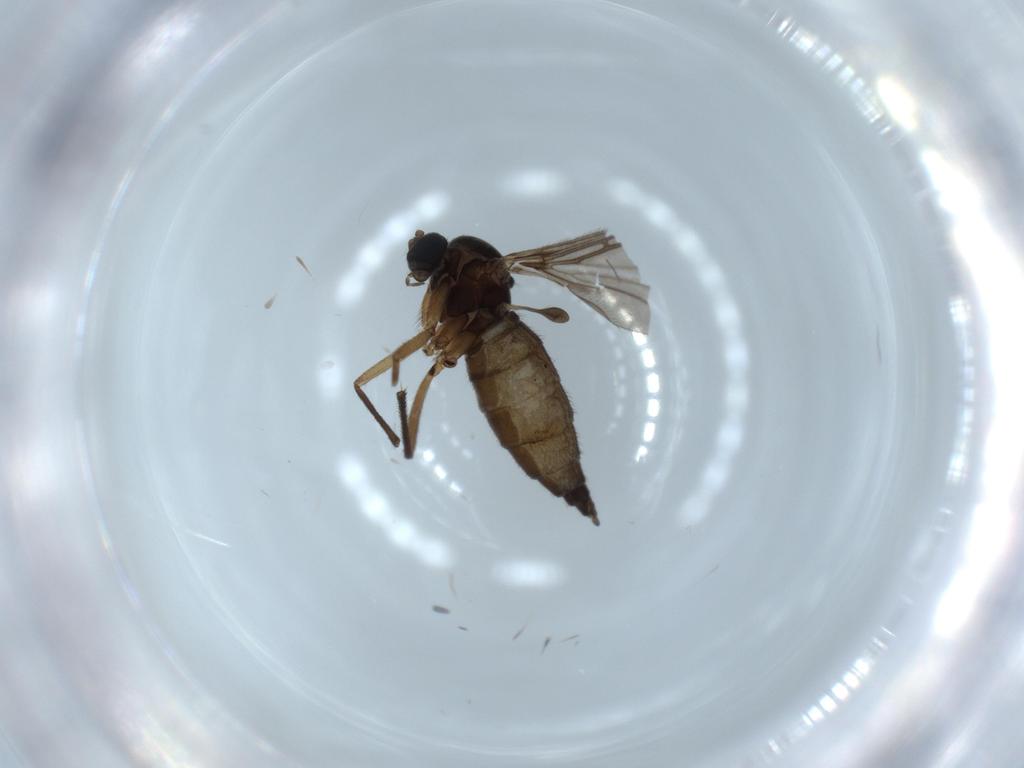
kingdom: Animalia
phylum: Arthropoda
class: Insecta
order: Diptera
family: Sciaridae
